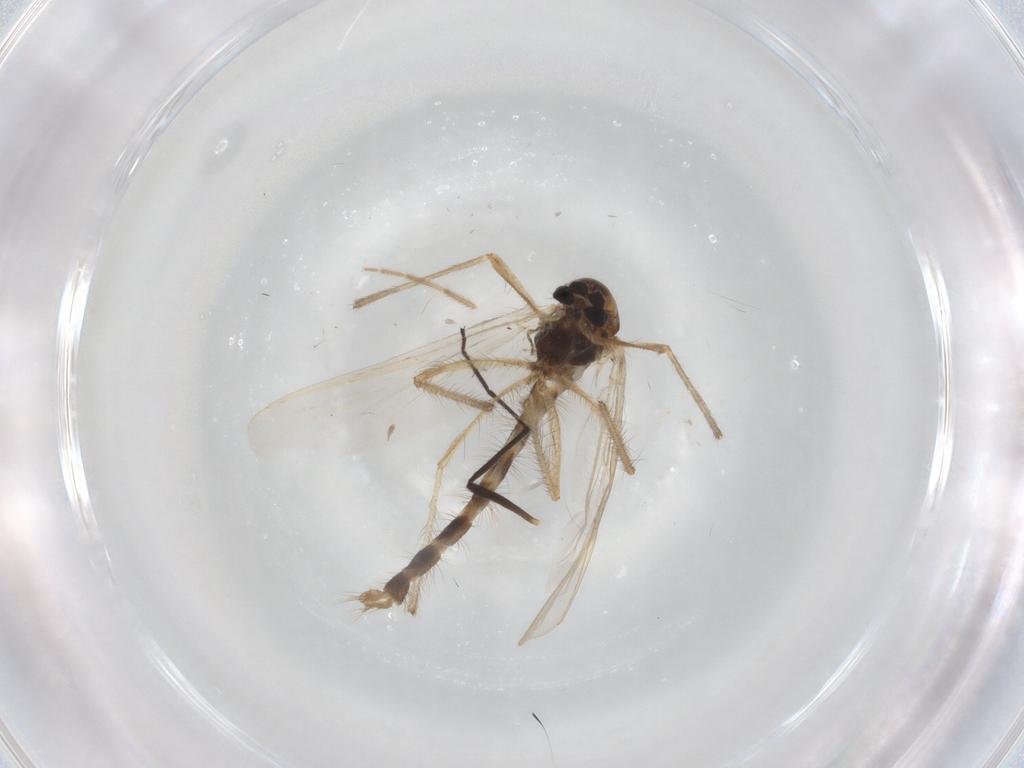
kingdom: Animalia
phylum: Arthropoda
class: Insecta
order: Diptera
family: Chironomidae
